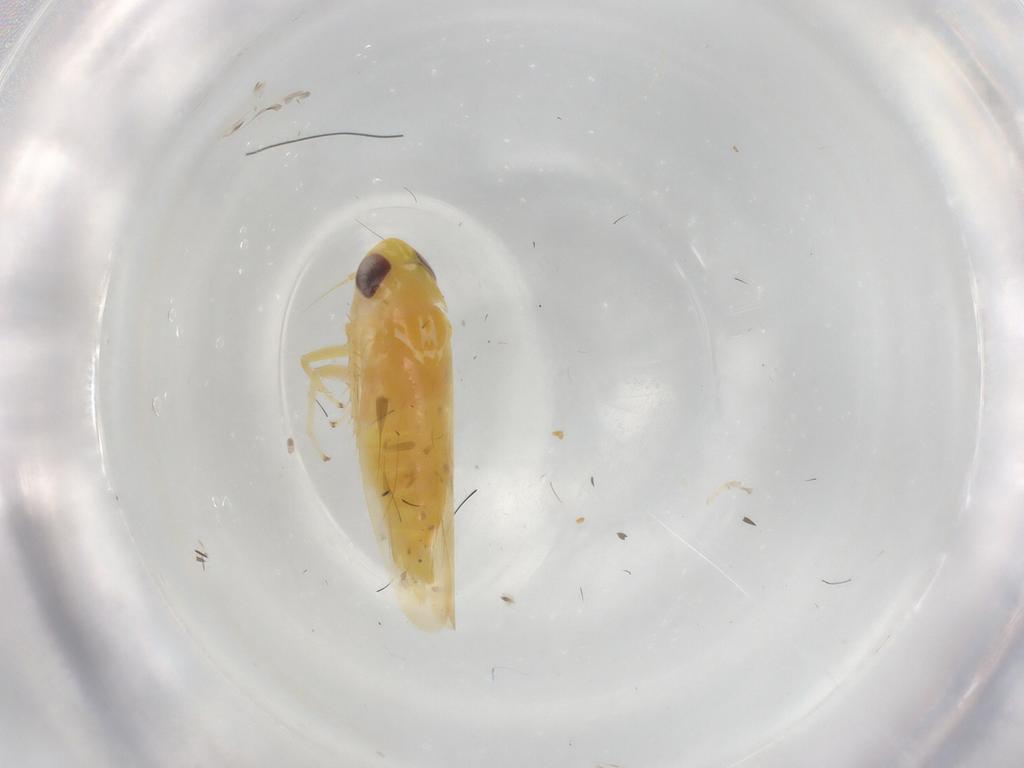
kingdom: Animalia
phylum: Arthropoda
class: Insecta
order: Hemiptera
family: Cicadellidae
